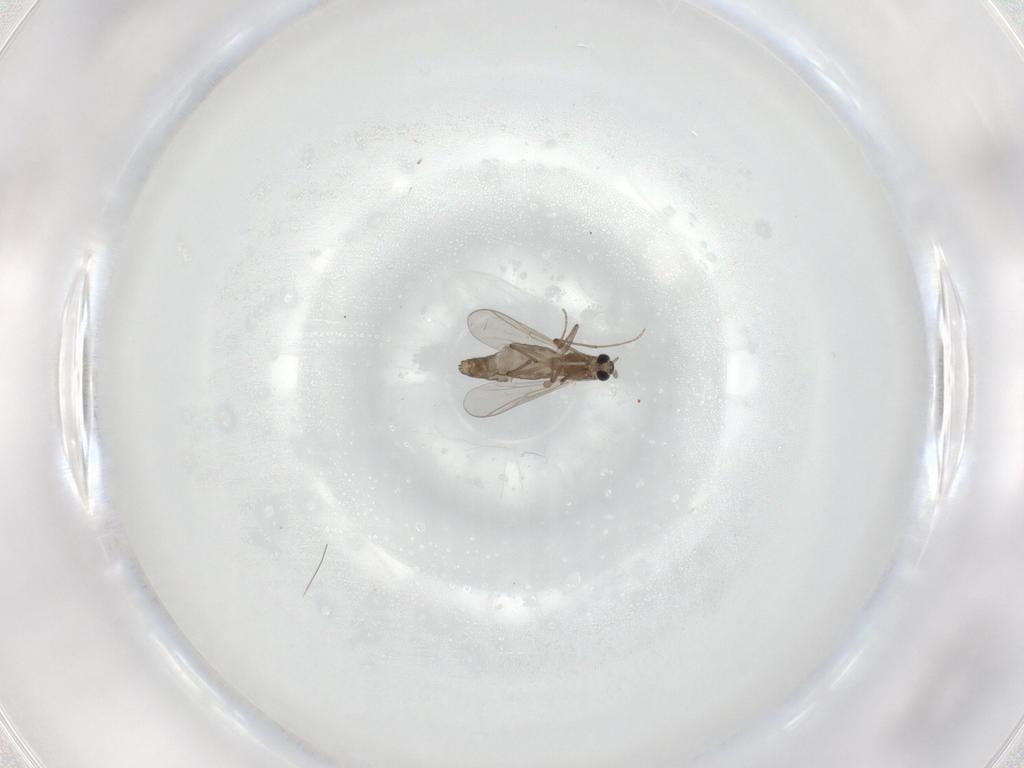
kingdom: Animalia
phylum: Arthropoda
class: Insecta
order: Diptera
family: Chironomidae
